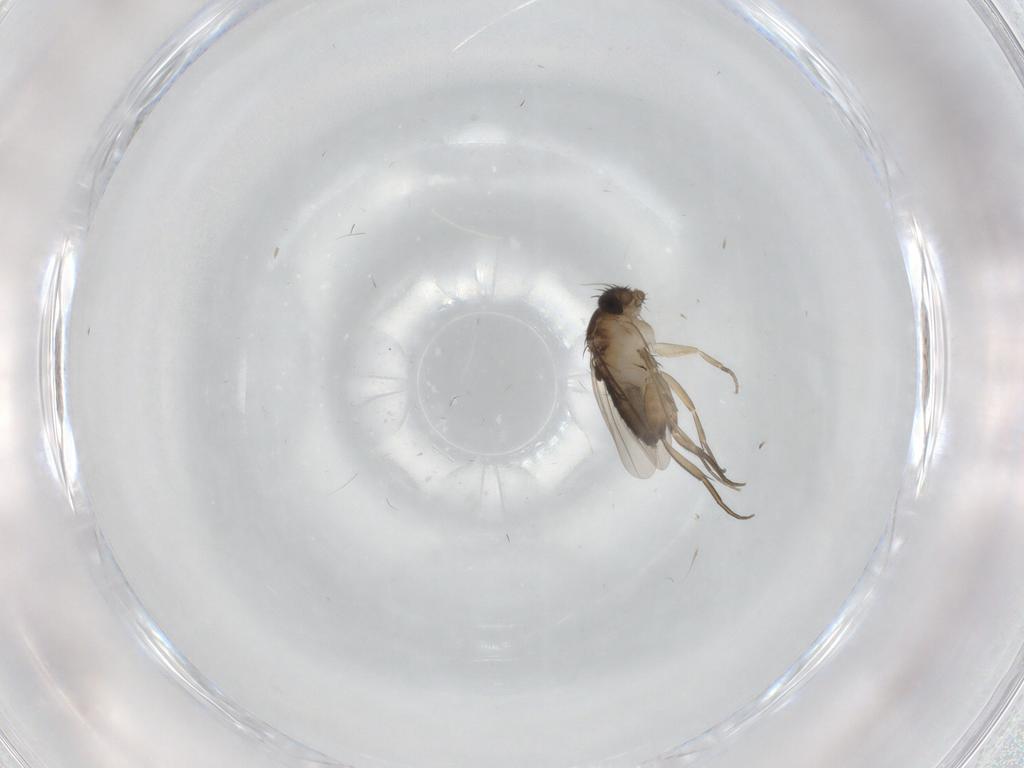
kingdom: Animalia
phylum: Arthropoda
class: Insecta
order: Diptera
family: Phoridae
